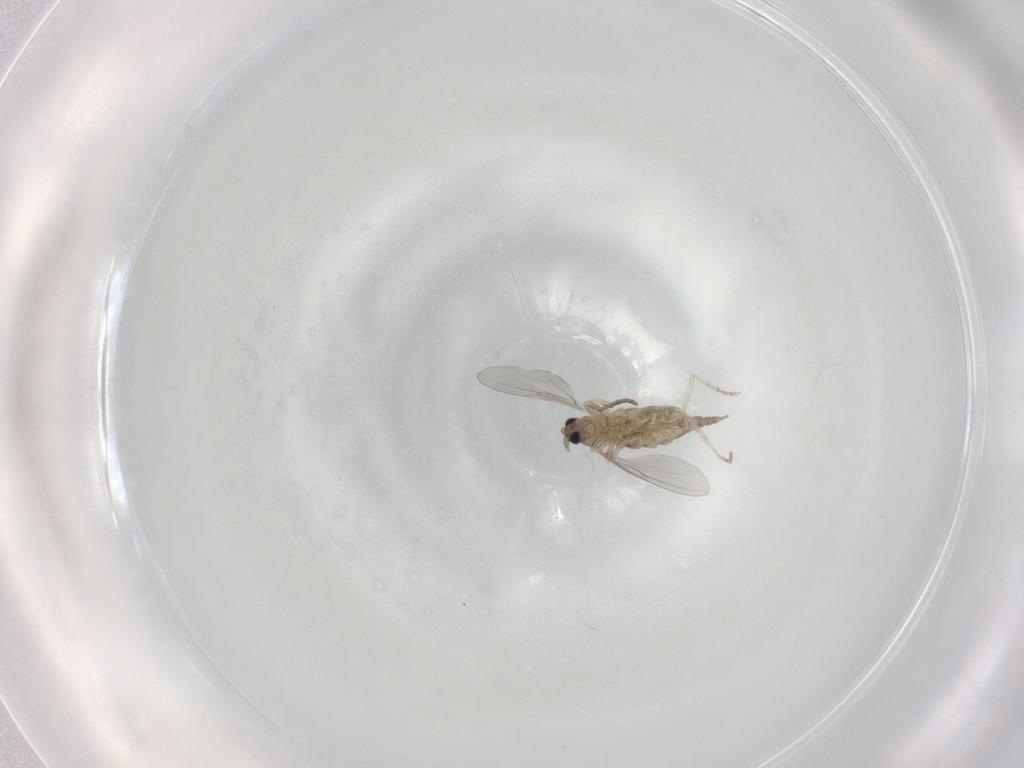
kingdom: Animalia
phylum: Arthropoda
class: Insecta
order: Diptera
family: Cecidomyiidae
